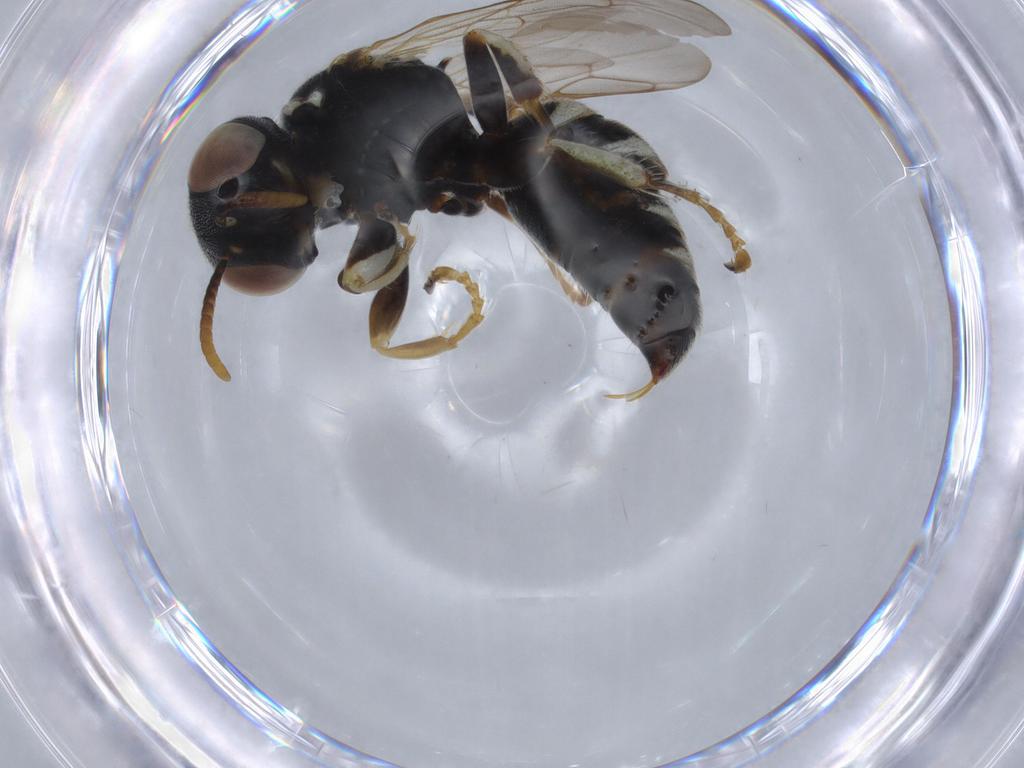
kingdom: Animalia
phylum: Arthropoda
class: Insecta
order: Hymenoptera
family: Crabronidae
